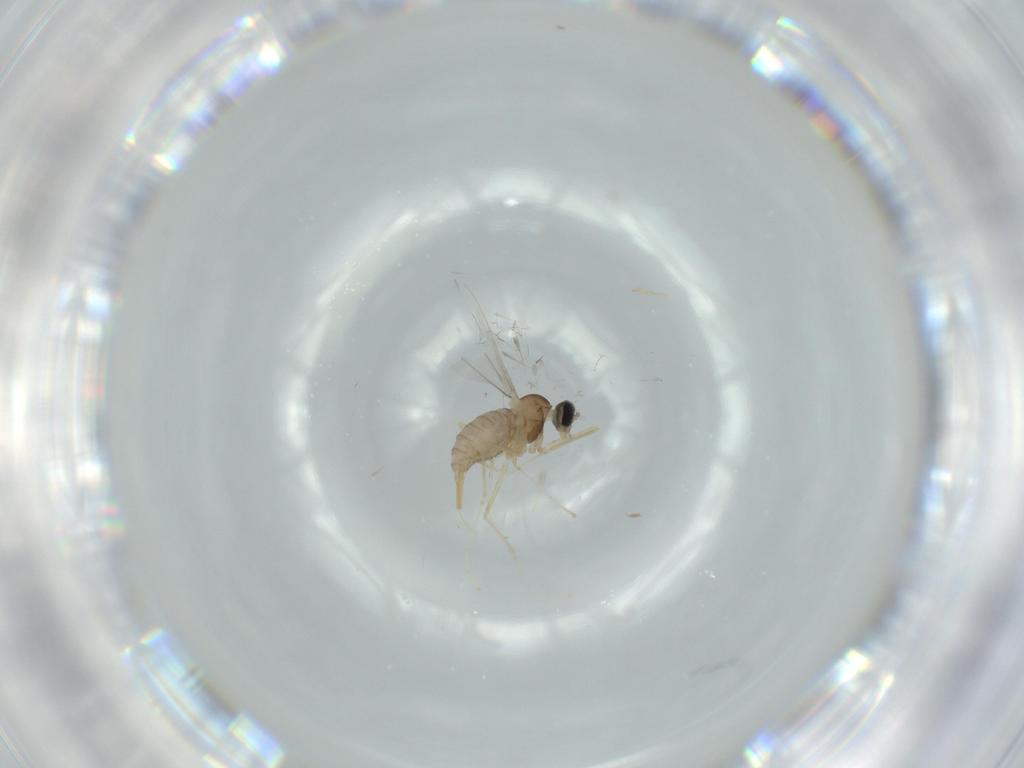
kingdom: Animalia
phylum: Arthropoda
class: Insecta
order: Diptera
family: Cecidomyiidae
